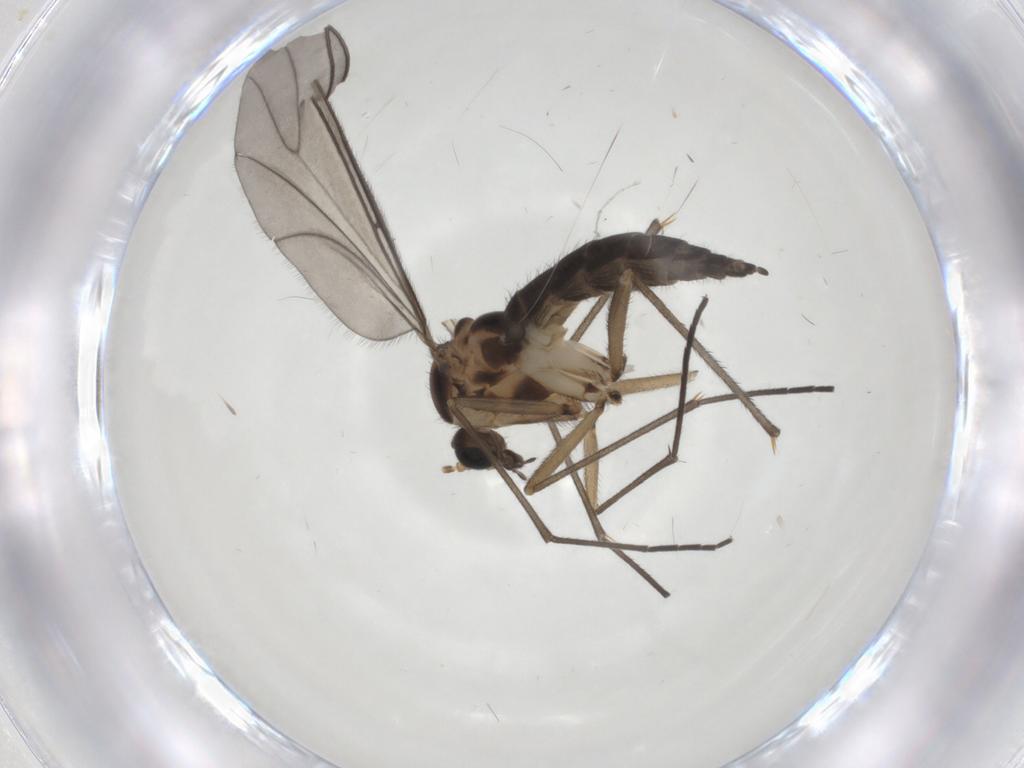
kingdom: Animalia
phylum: Arthropoda
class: Insecta
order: Diptera
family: Sciaridae
